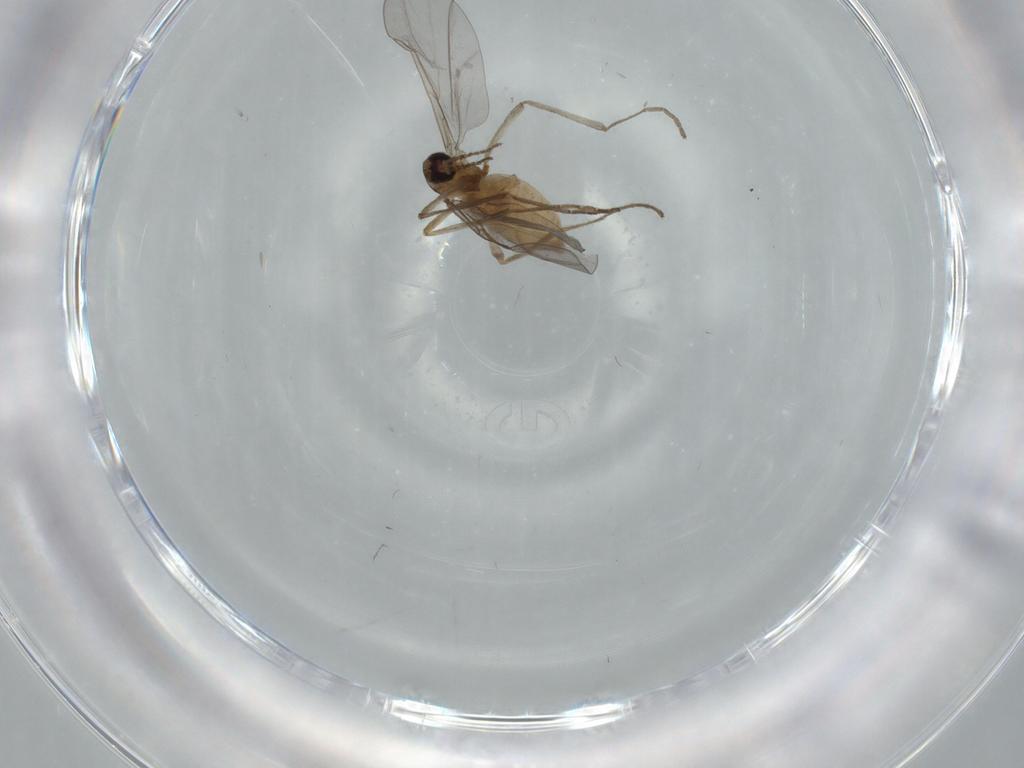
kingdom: Animalia
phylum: Arthropoda
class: Insecta
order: Diptera
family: Cecidomyiidae
